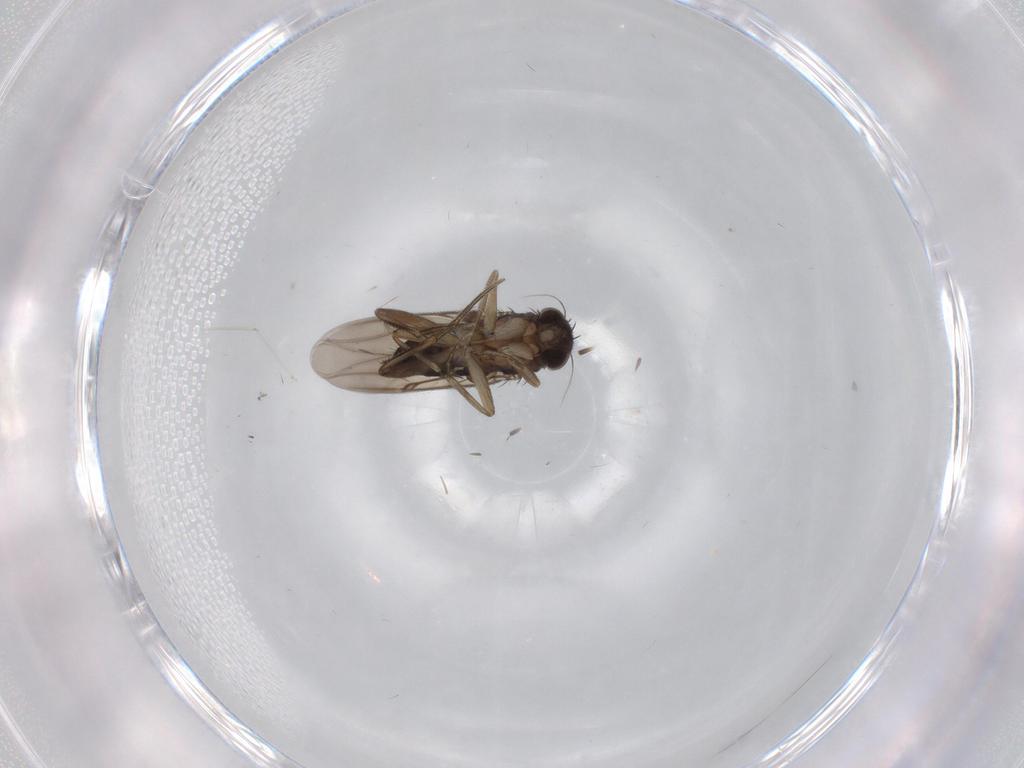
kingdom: Animalia
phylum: Arthropoda
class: Insecta
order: Diptera
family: Phoridae
